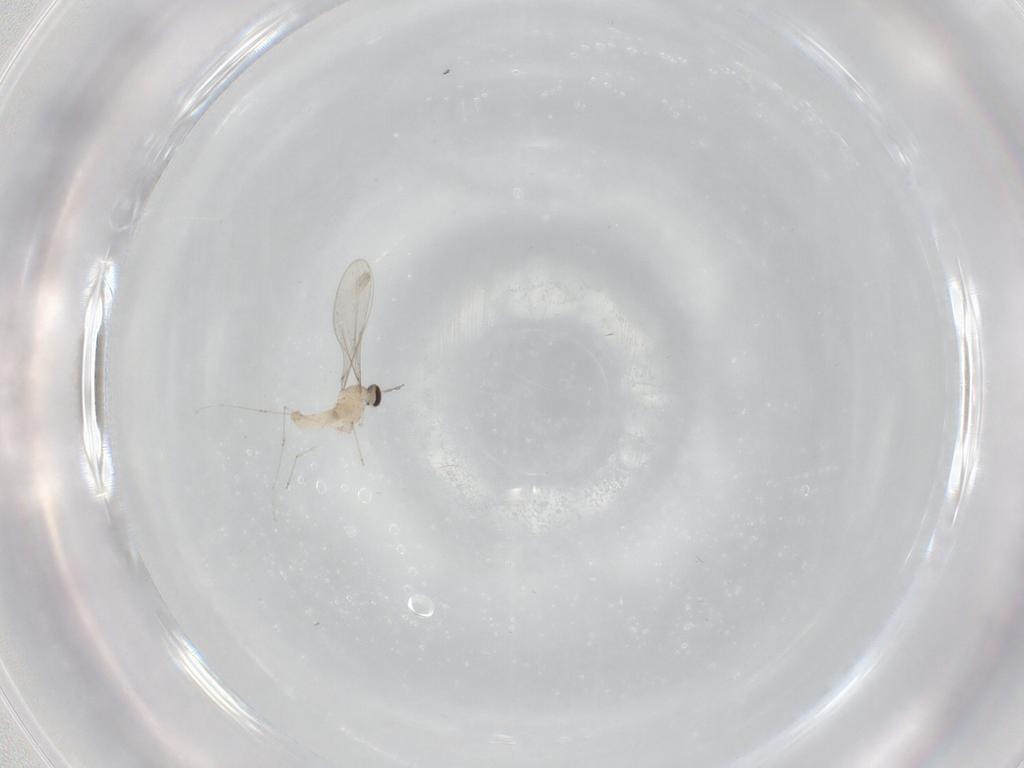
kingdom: Animalia
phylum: Arthropoda
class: Insecta
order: Diptera
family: Cecidomyiidae
